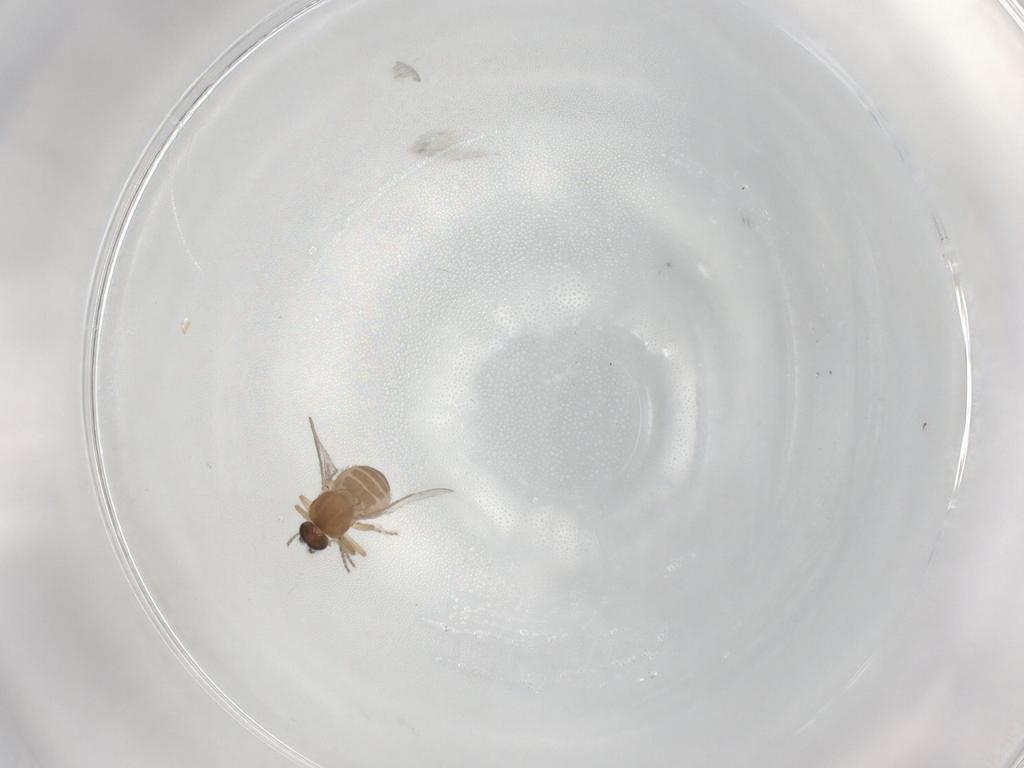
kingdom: Animalia
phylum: Arthropoda
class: Insecta
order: Diptera
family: Ceratopogonidae
